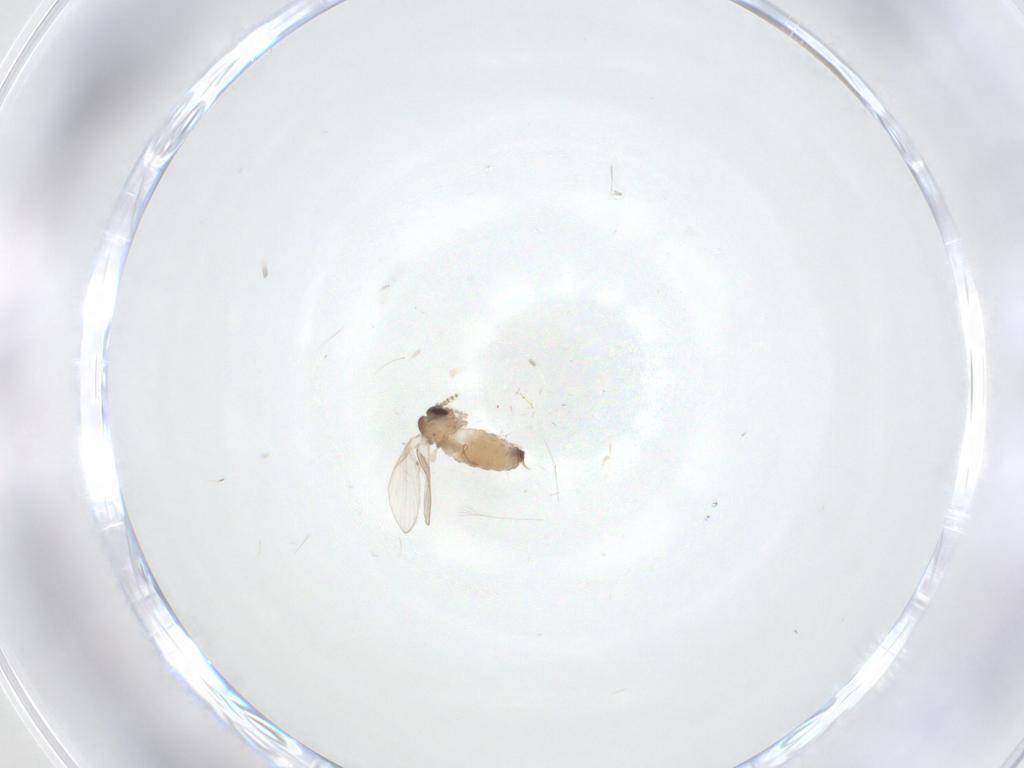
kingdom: Animalia
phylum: Arthropoda
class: Insecta
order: Diptera
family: Psychodidae
